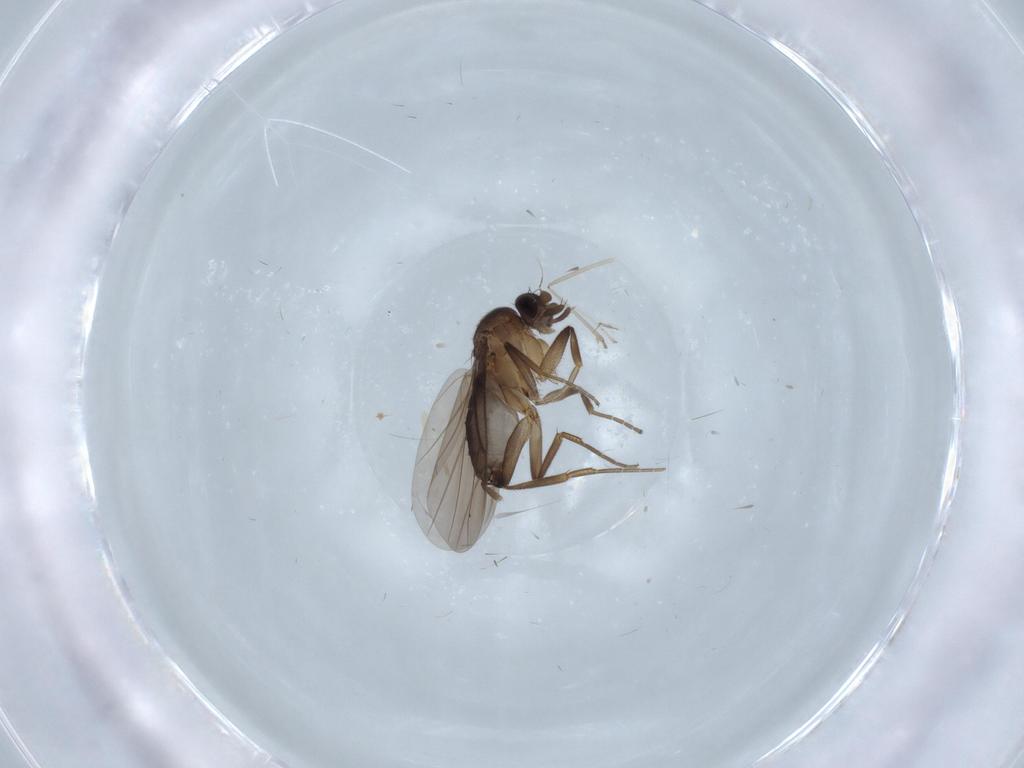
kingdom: Animalia
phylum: Arthropoda
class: Insecta
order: Diptera
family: Phoridae
